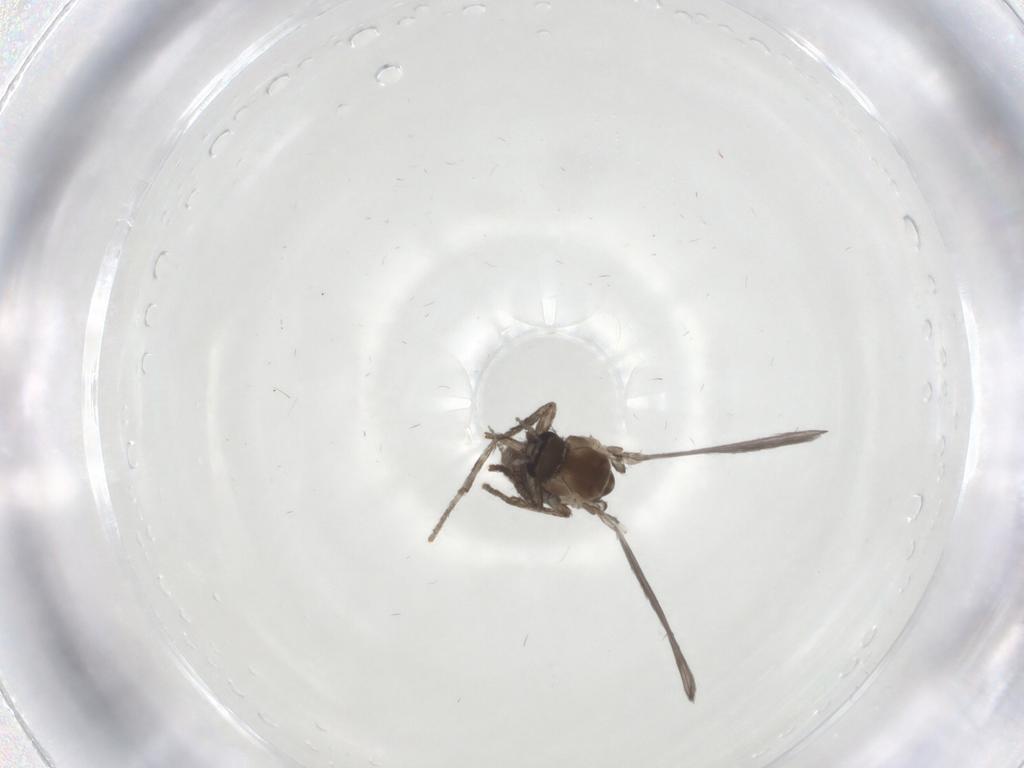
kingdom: Animalia
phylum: Arthropoda
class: Insecta
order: Diptera
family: Psychodidae
